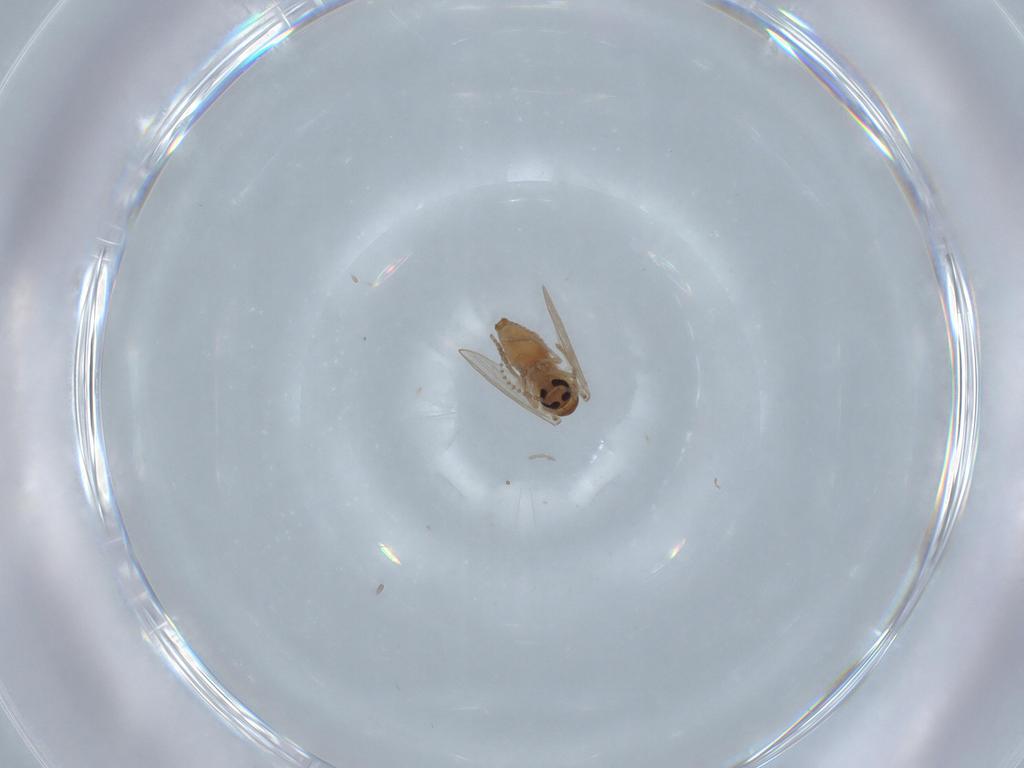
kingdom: Animalia
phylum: Arthropoda
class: Insecta
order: Diptera
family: Psychodidae
